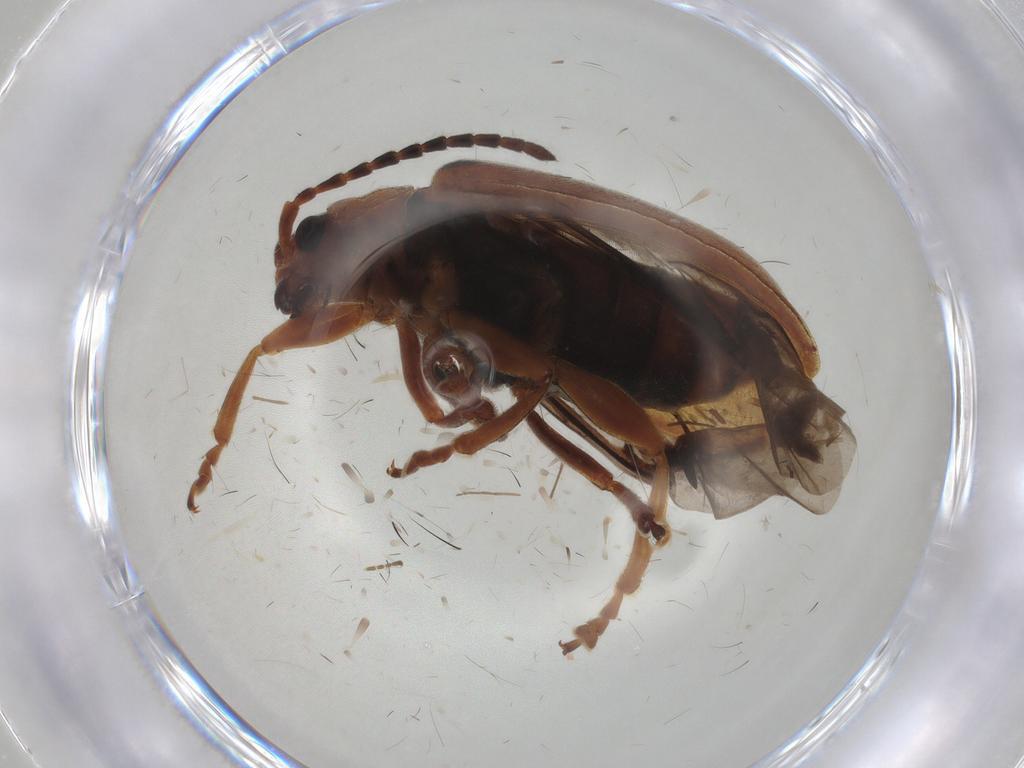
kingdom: Animalia
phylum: Arthropoda
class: Insecta
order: Coleoptera
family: Chrysomelidae
